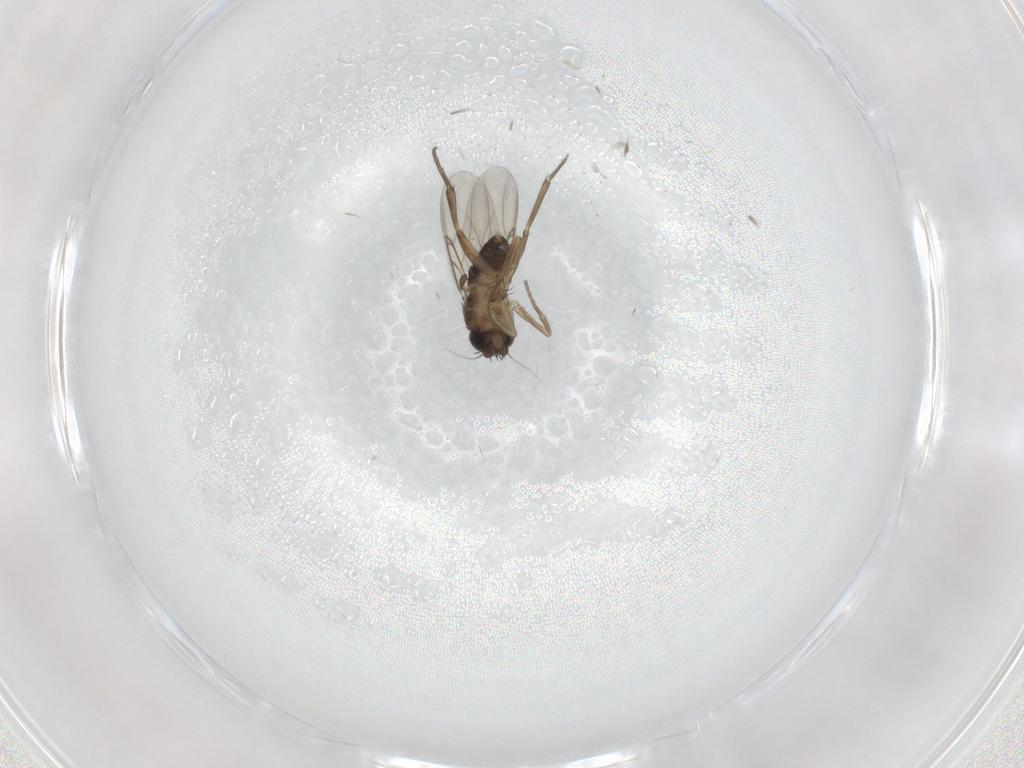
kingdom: Animalia
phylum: Arthropoda
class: Insecta
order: Diptera
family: Phoridae
